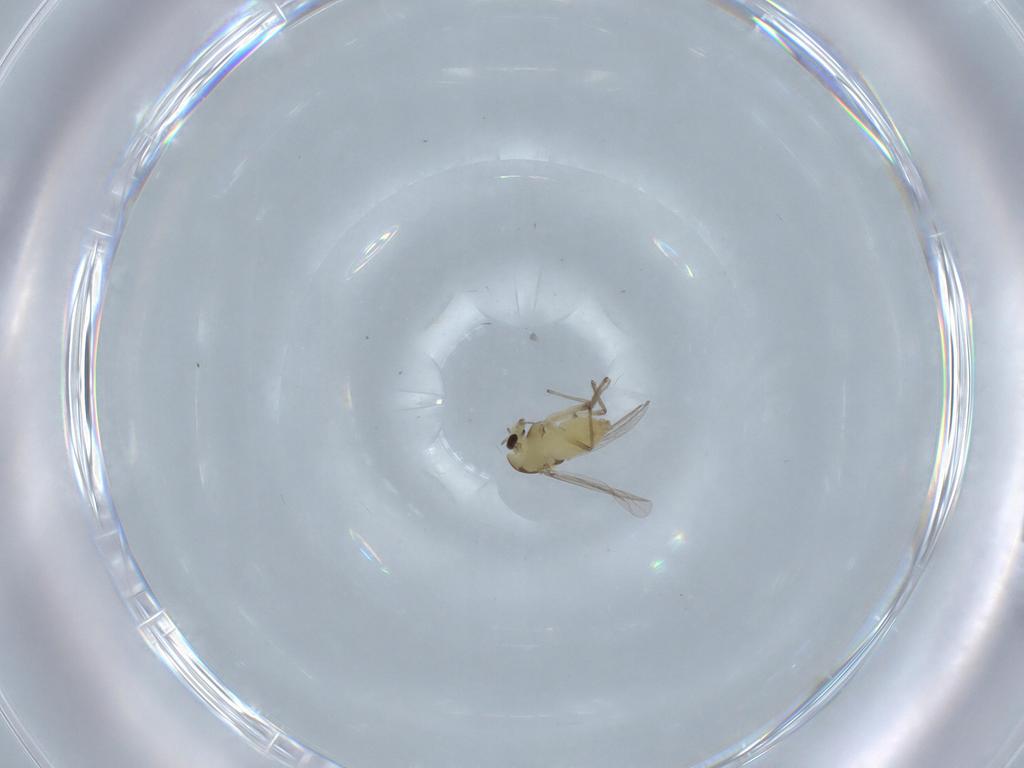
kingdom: Animalia
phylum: Arthropoda
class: Insecta
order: Diptera
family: Chironomidae
